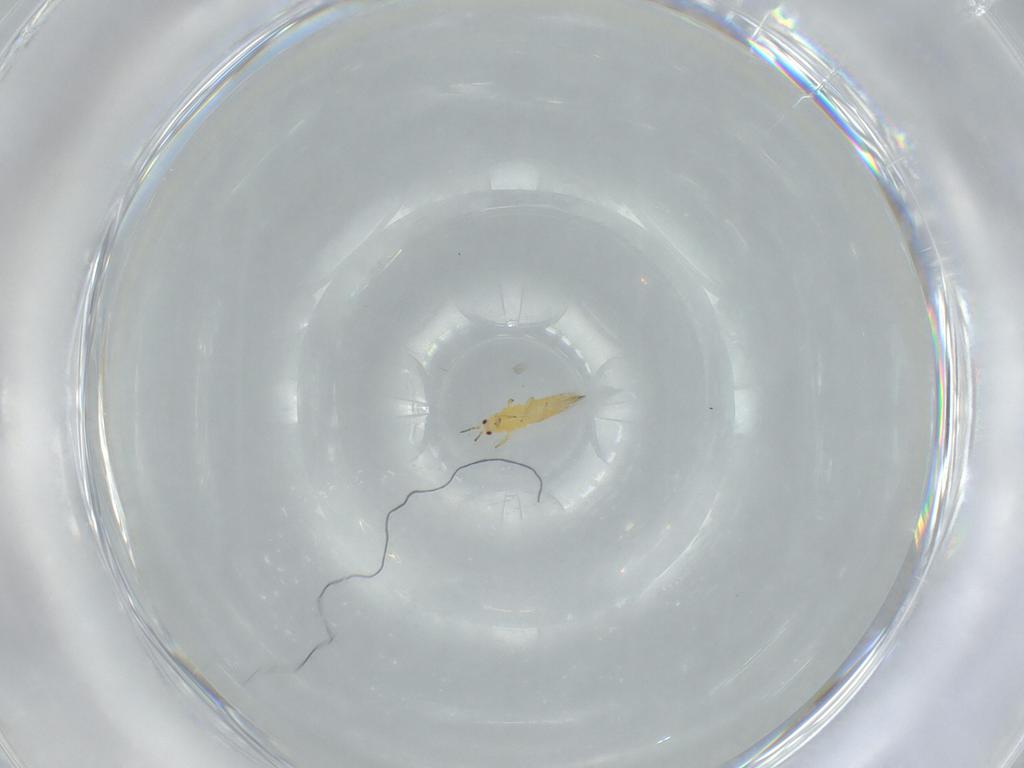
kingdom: Animalia
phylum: Arthropoda
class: Insecta
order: Thysanoptera
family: Thripidae
